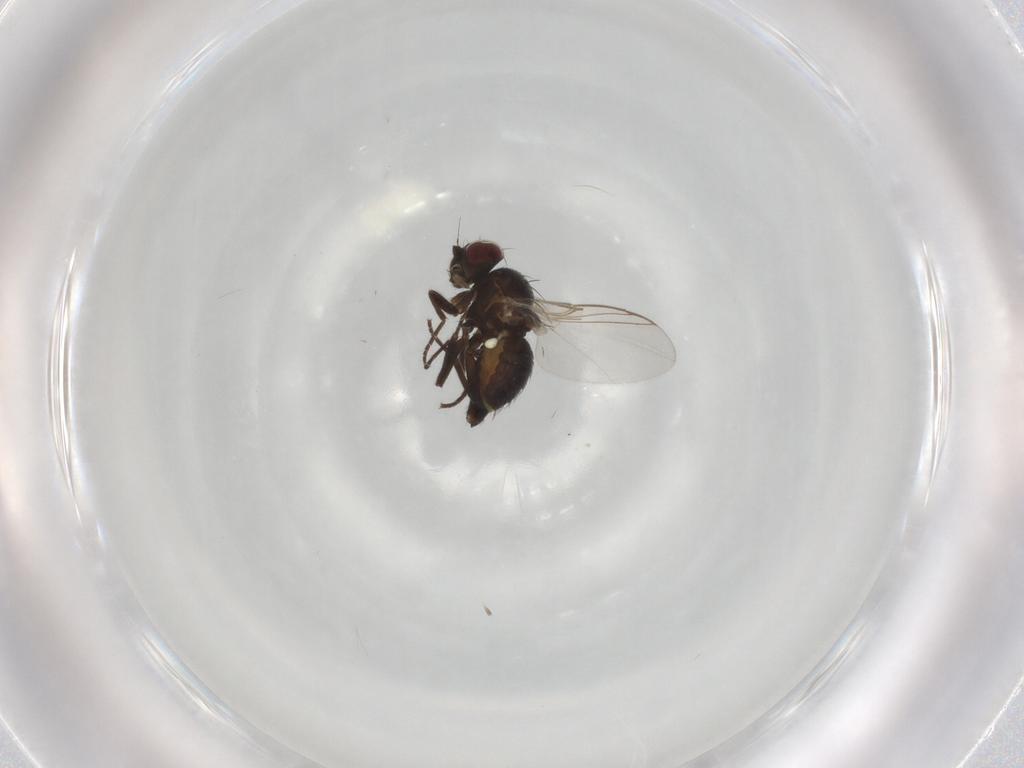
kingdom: Animalia
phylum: Arthropoda
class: Insecta
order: Diptera
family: Dolichopodidae
